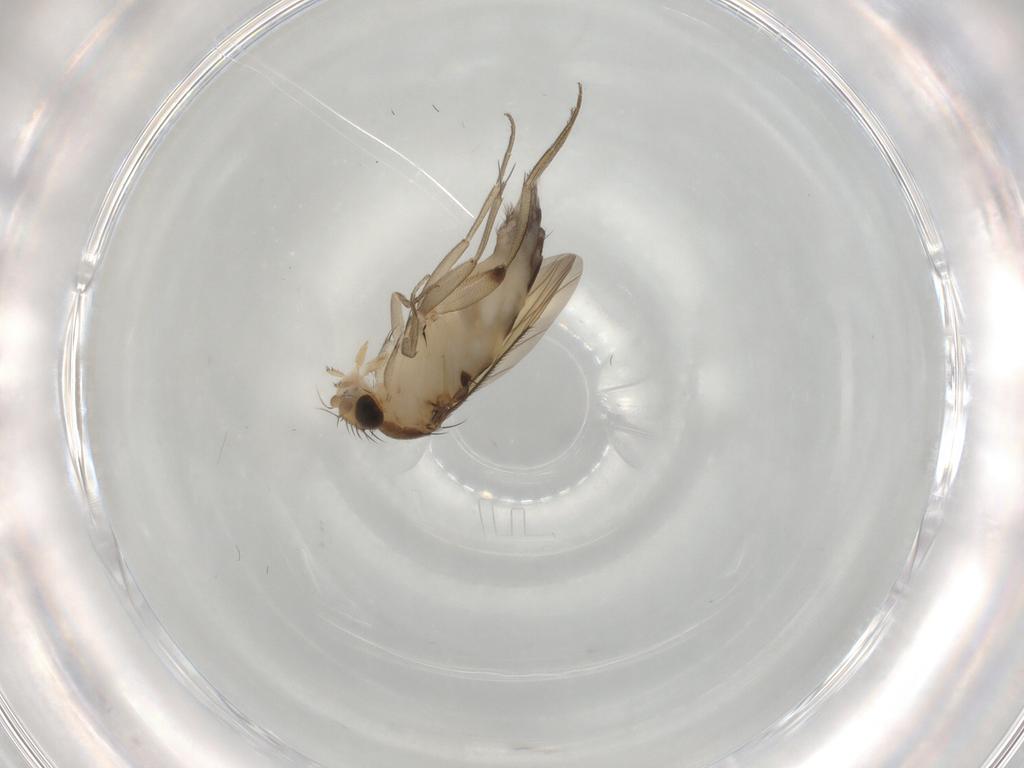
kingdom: Animalia
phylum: Arthropoda
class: Insecta
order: Diptera
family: Phoridae
